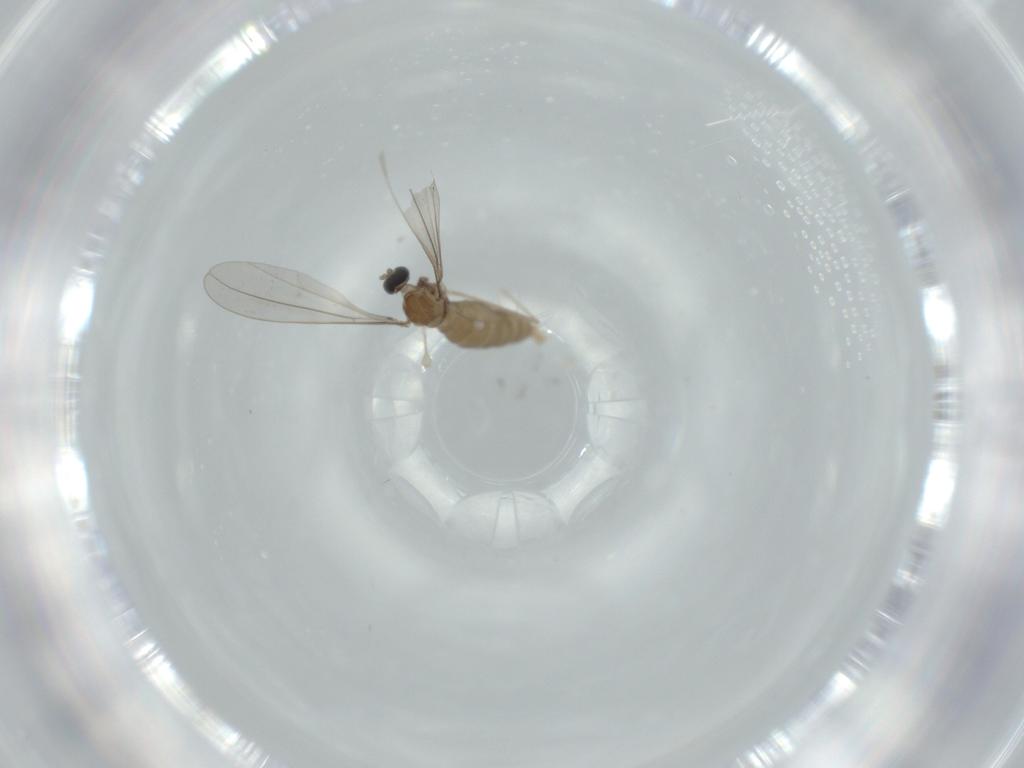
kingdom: Animalia
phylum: Arthropoda
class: Insecta
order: Diptera
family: Cecidomyiidae
